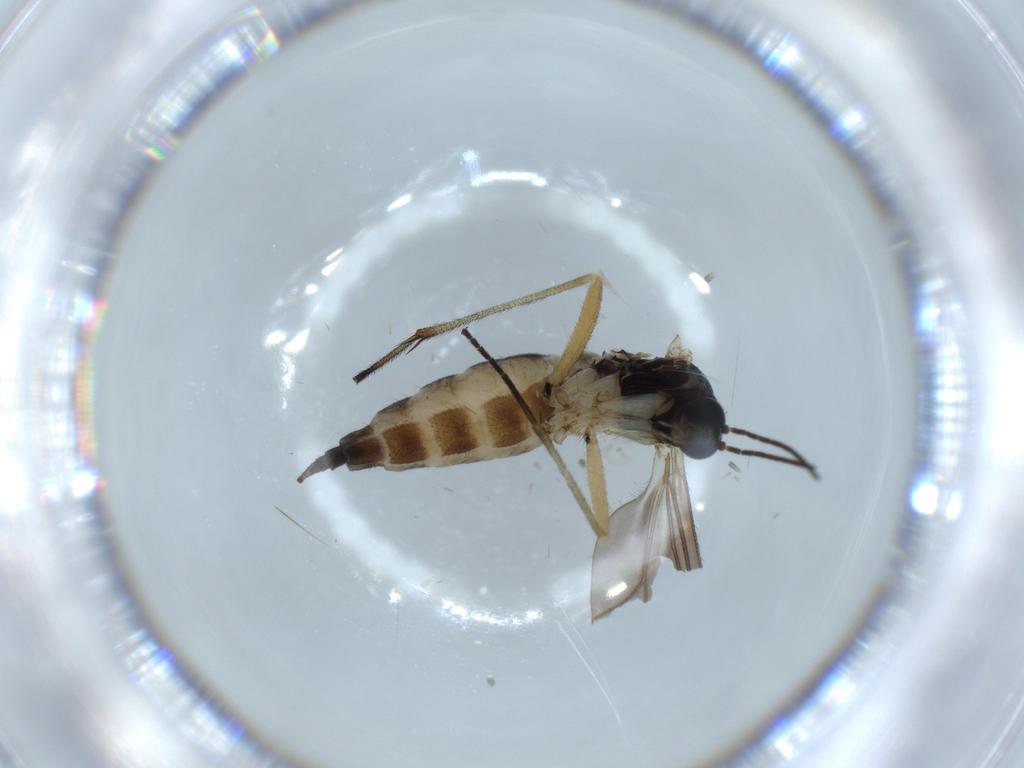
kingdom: Animalia
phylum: Arthropoda
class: Insecta
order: Diptera
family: Sciaridae
